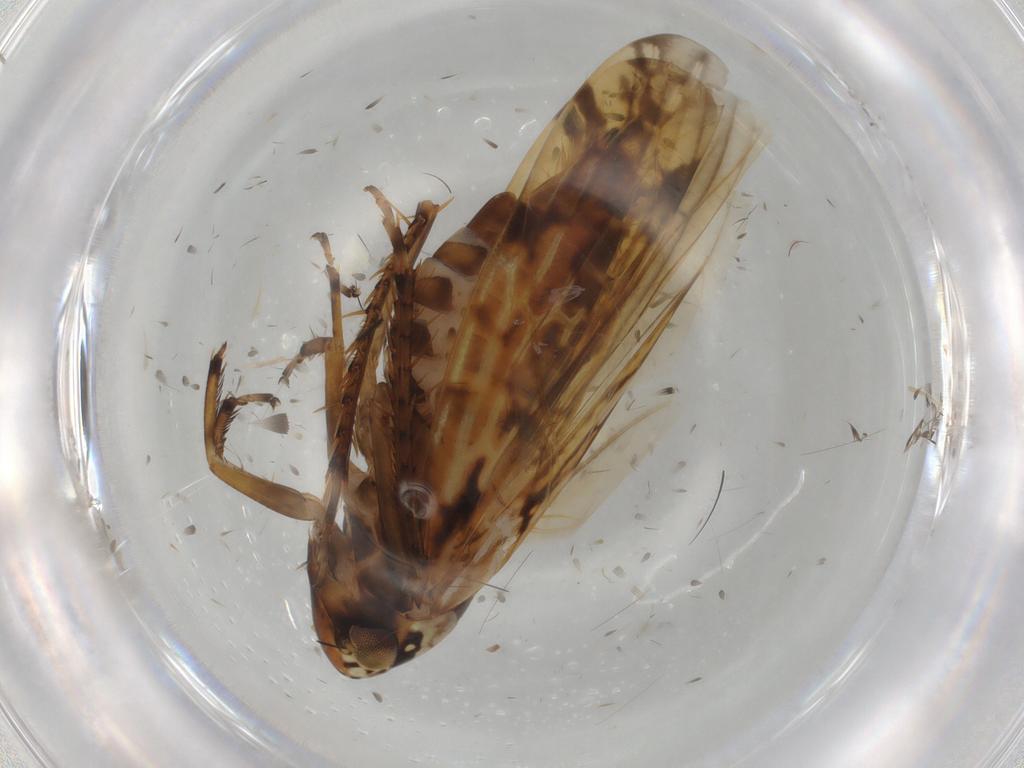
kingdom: Animalia
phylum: Arthropoda
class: Insecta
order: Hemiptera
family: Cicadellidae
